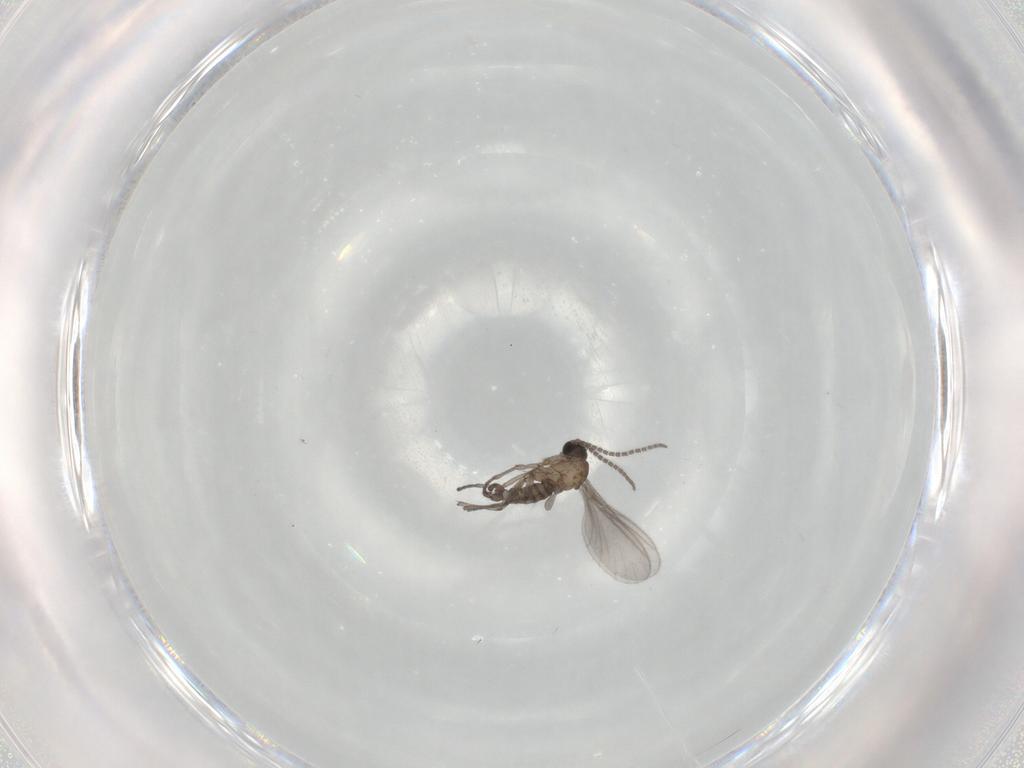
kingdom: Animalia
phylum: Arthropoda
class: Insecta
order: Diptera
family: Sciaridae
